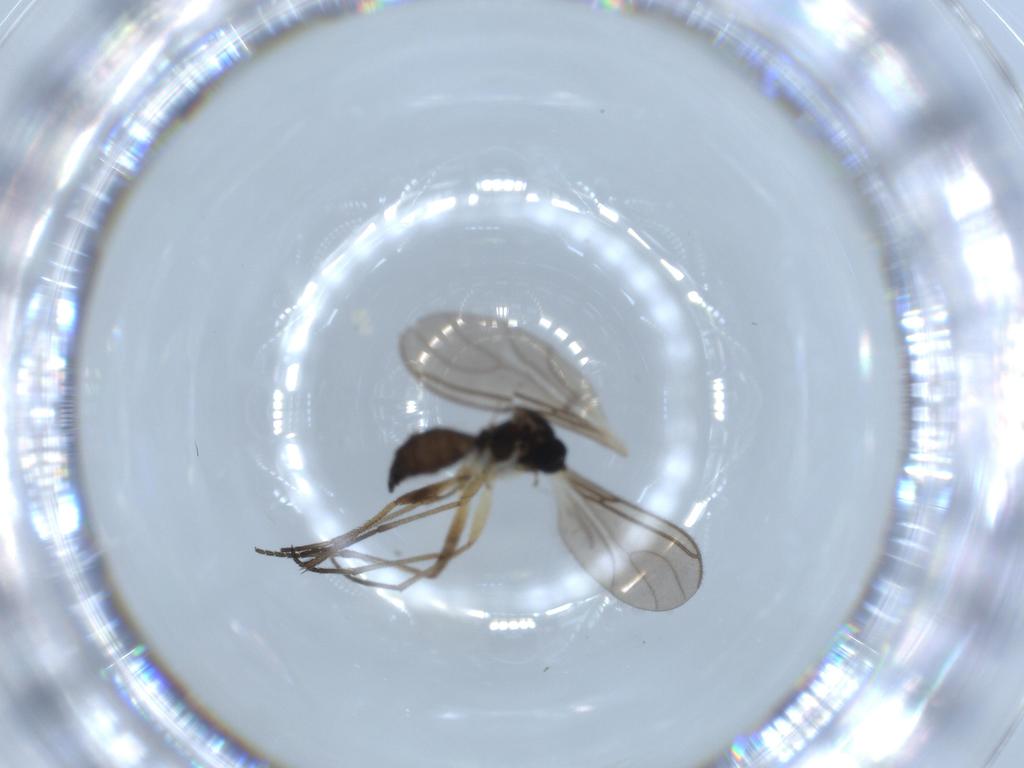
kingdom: Animalia
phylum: Arthropoda
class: Insecta
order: Diptera
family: Sciaridae
